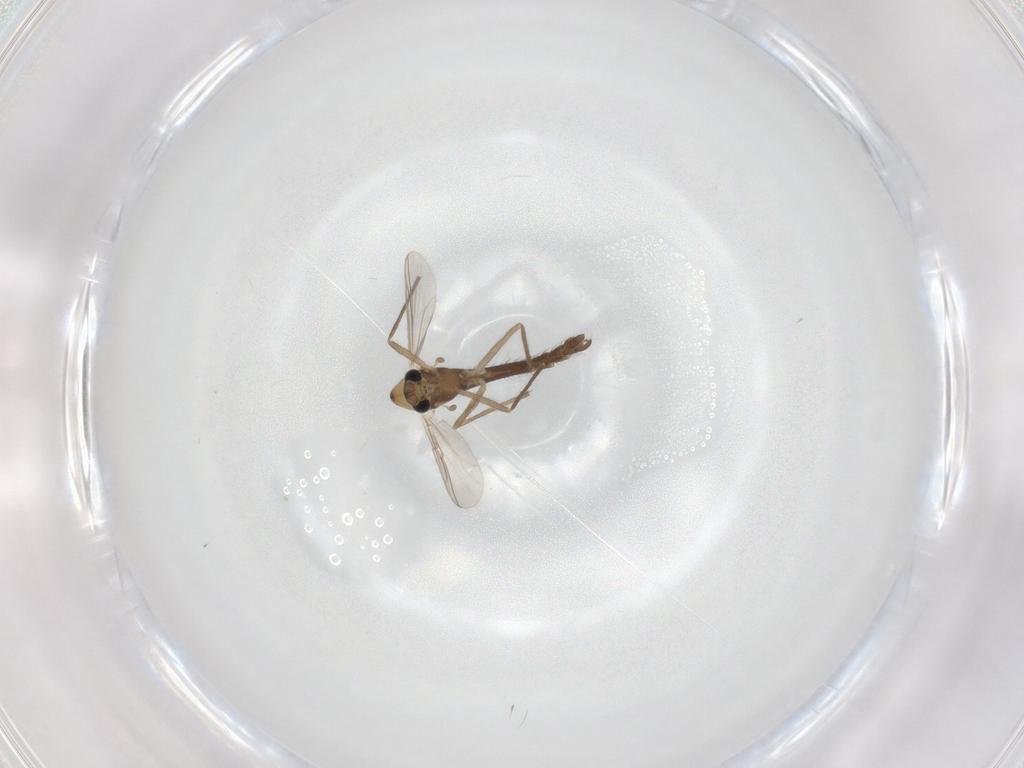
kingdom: Animalia
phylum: Arthropoda
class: Insecta
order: Diptera
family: Chironomidae
